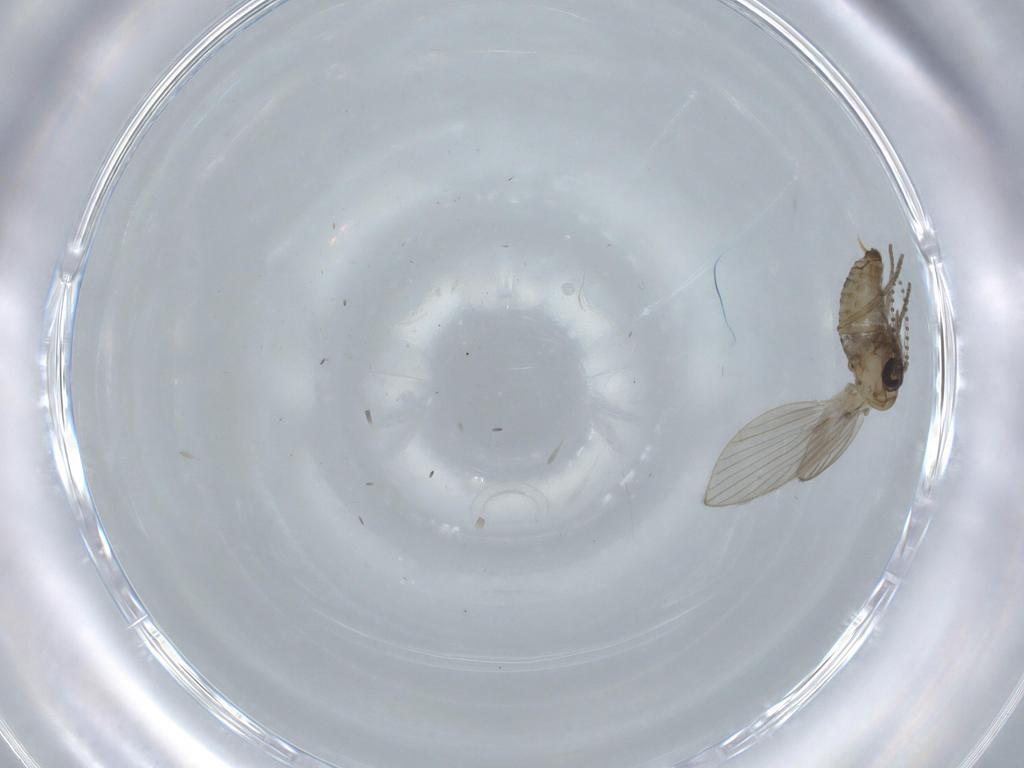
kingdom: Animalia
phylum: Arthropoda
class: Insecta
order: Diptera
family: Psychodidae
